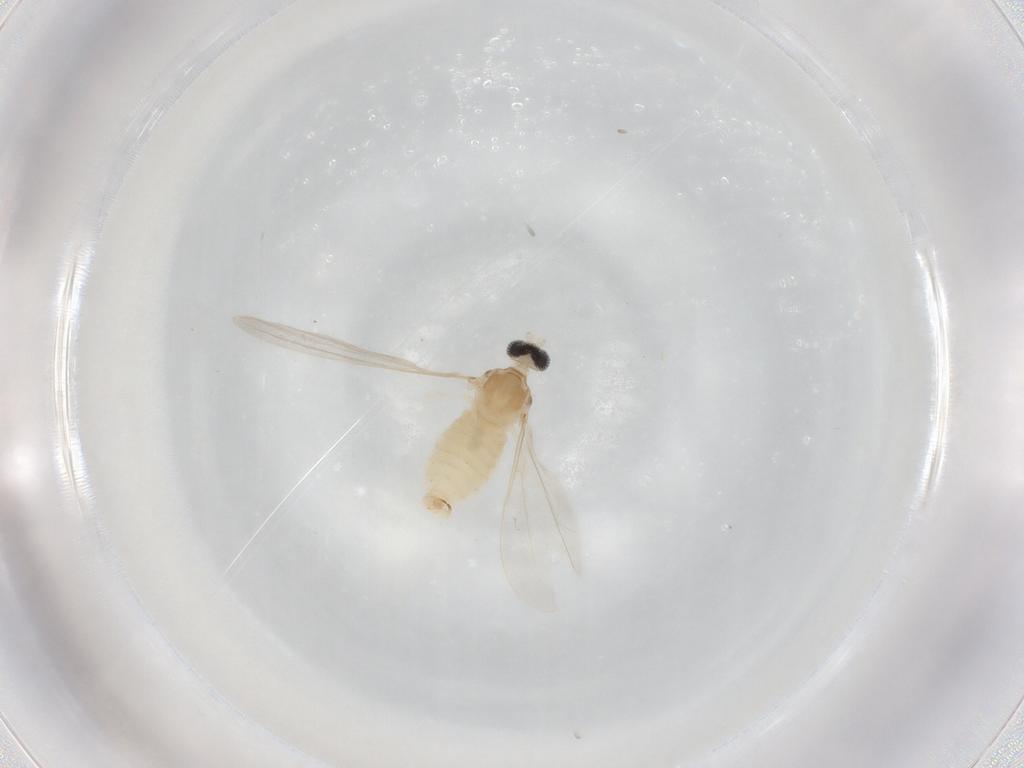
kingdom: Animalia
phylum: Arthropoda
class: Insecta
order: Diptera
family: Cecidomyiidae
